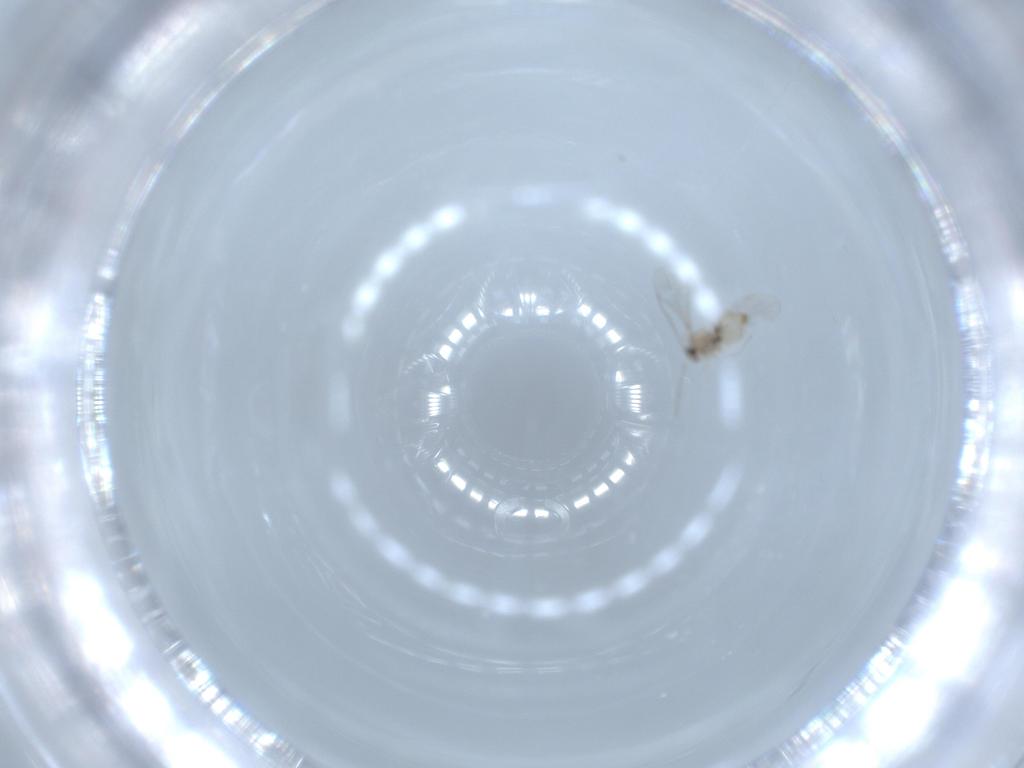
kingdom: Animalia
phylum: Arthropoda
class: Insecta
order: Diptera
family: Cecidomyiidae
